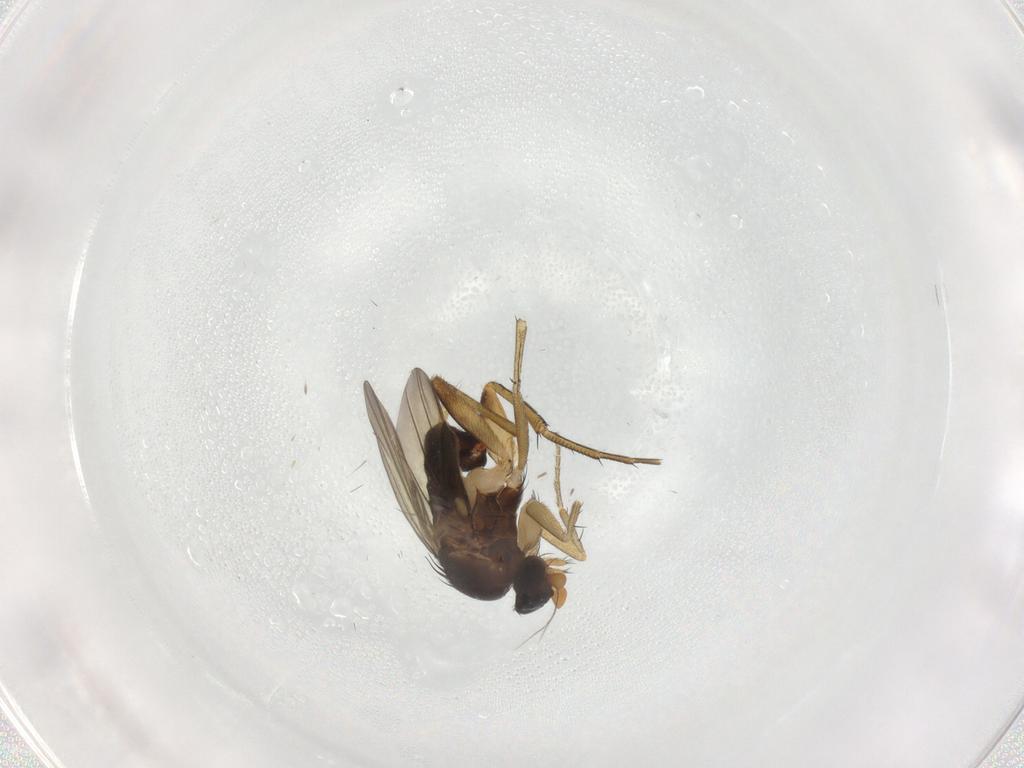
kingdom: Animalia
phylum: Arthropoda
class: Insecta
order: Diptera
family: Phoridae
